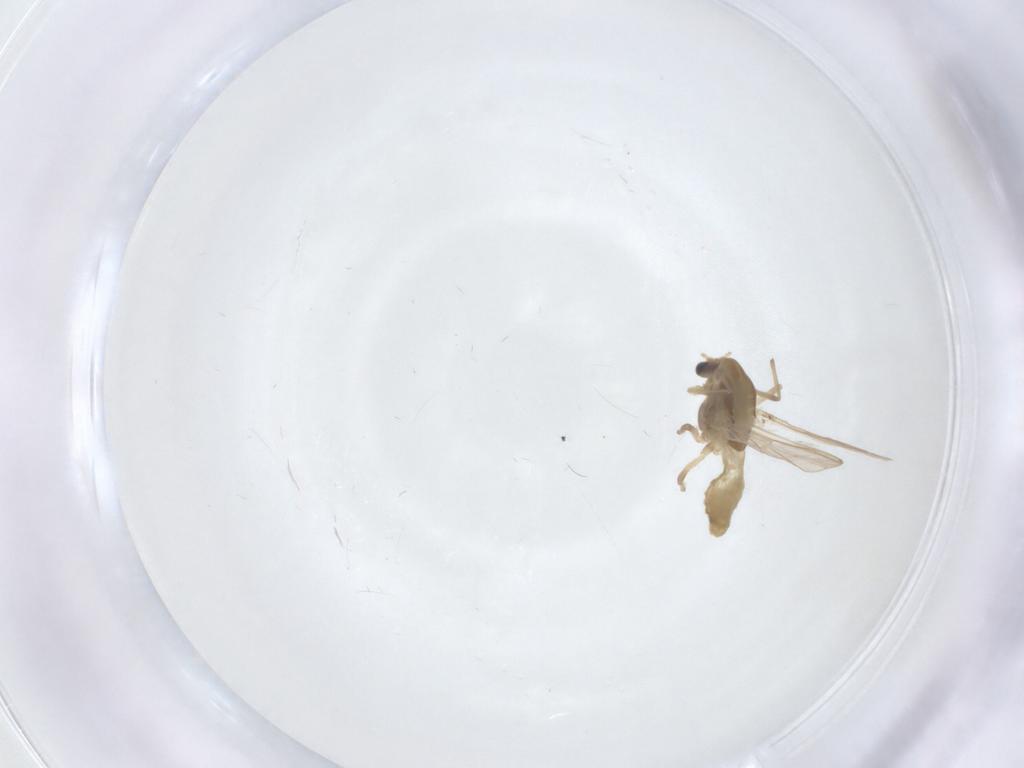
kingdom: Animalia
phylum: Arthropoda
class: Insecta
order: Diptera
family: Chironomidae
